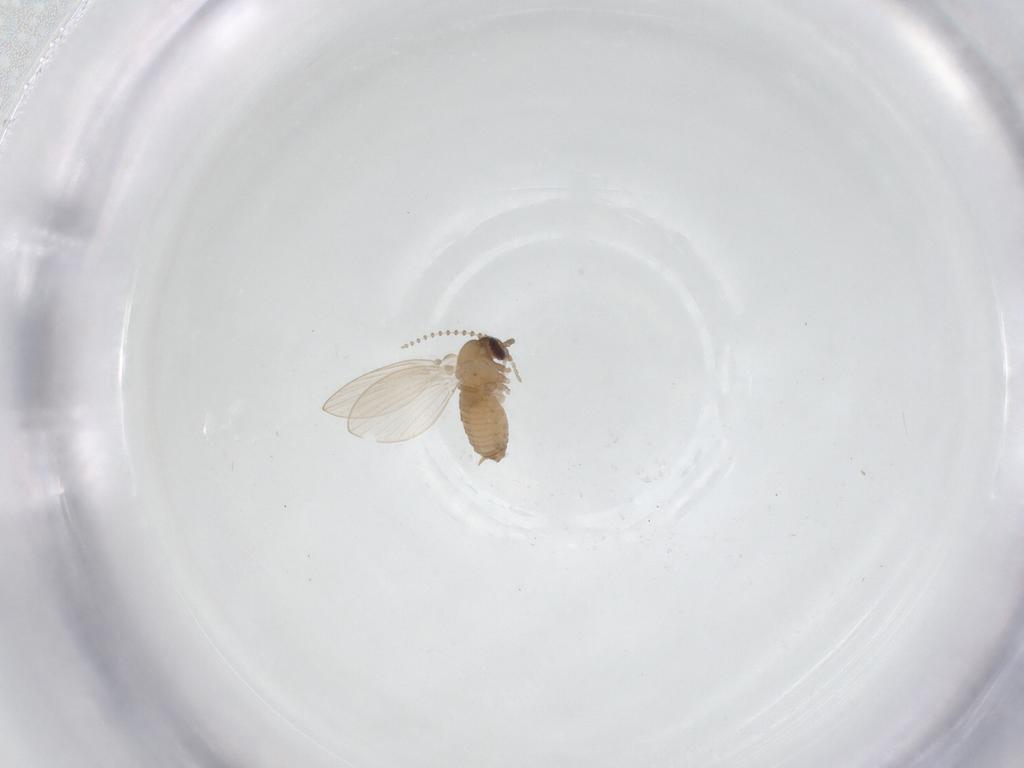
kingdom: Animalia
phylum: Arthropoda
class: Insecta
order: Diptera
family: Psychodidae
